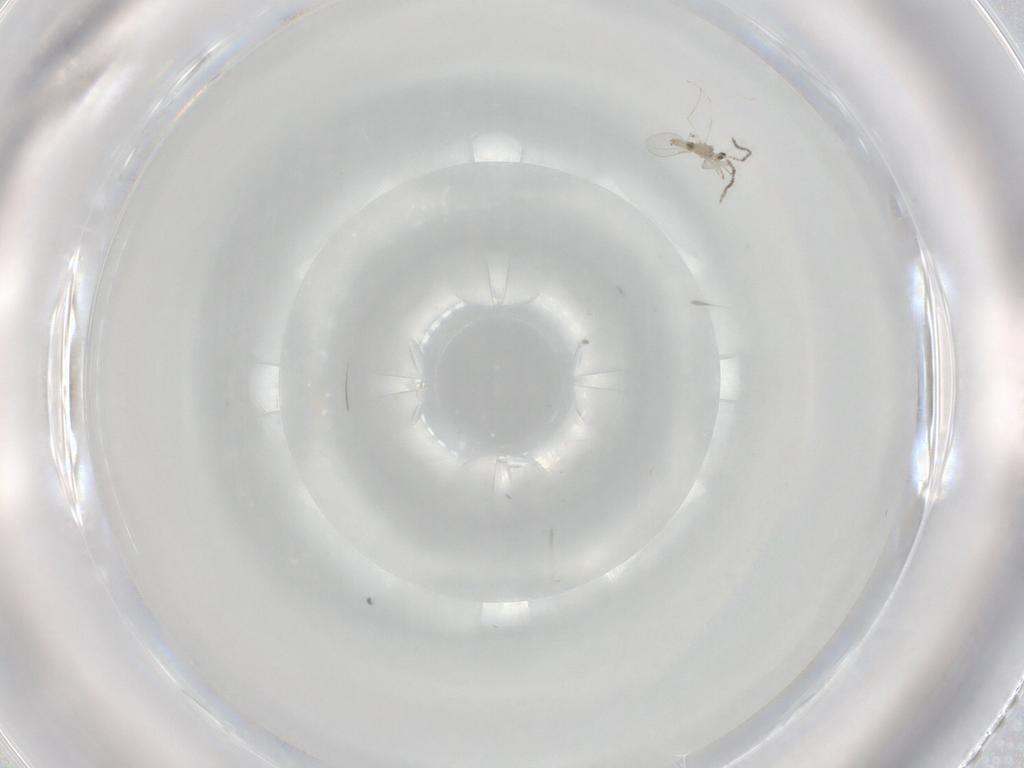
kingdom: Animalia
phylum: Arthropoda
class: Insecta
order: Diptera
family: Cecidomyiidae
